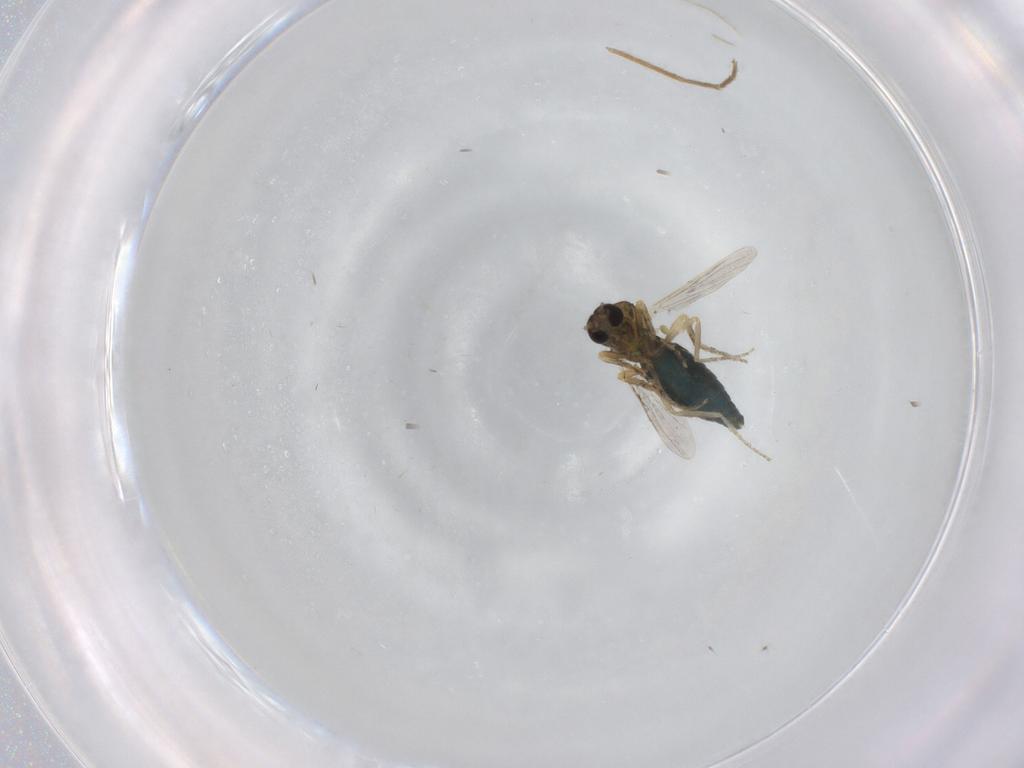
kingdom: Animalia
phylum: Arthropoda
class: Insecta
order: Diptera
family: Ceratopogonidae
